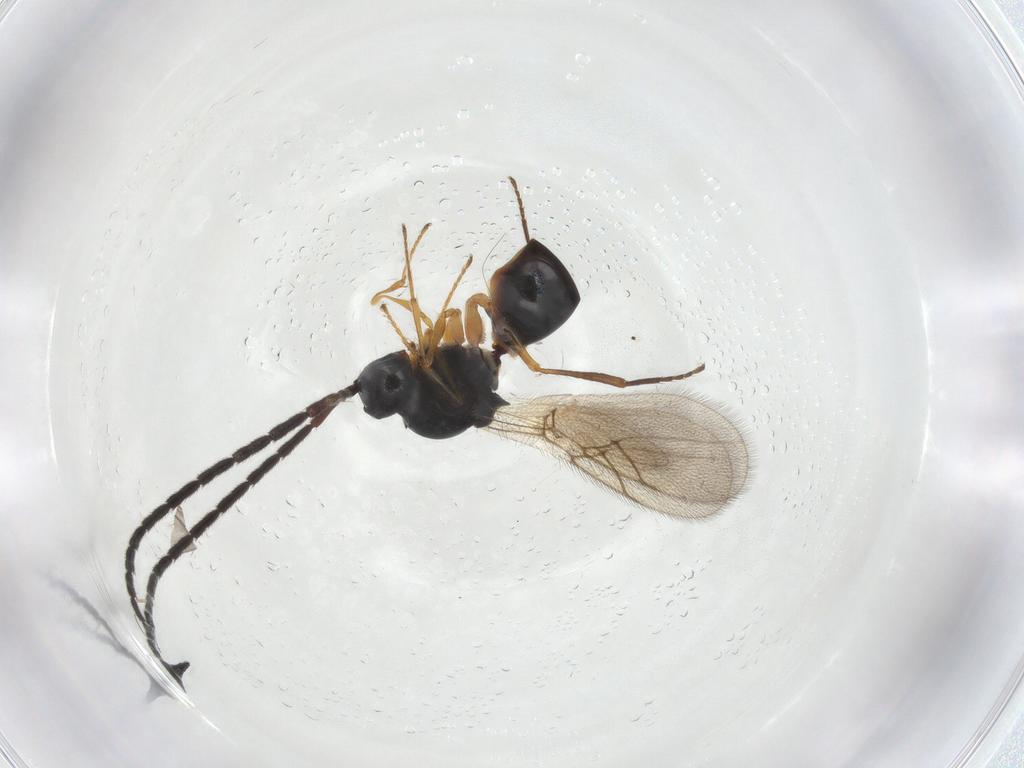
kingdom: Animalia
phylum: Arthropoda
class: Insecta
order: Hymenoptera
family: Figitidae
